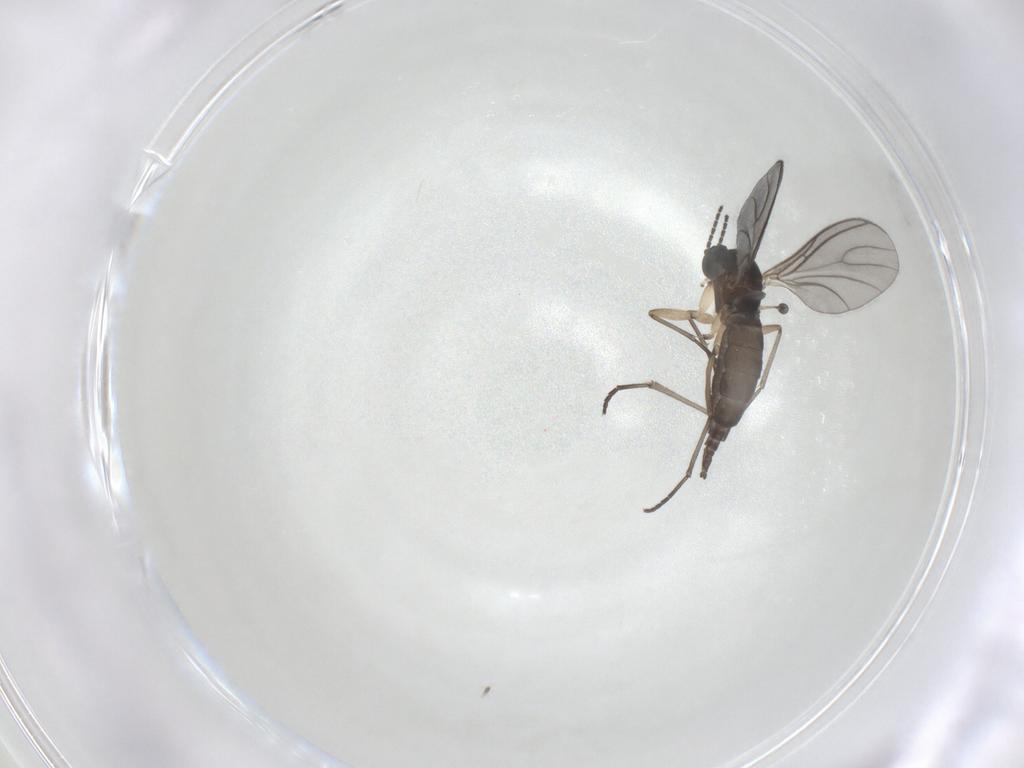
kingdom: Animalia
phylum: Arthropoda
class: Insecta
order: Diptera
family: Sciaridae
